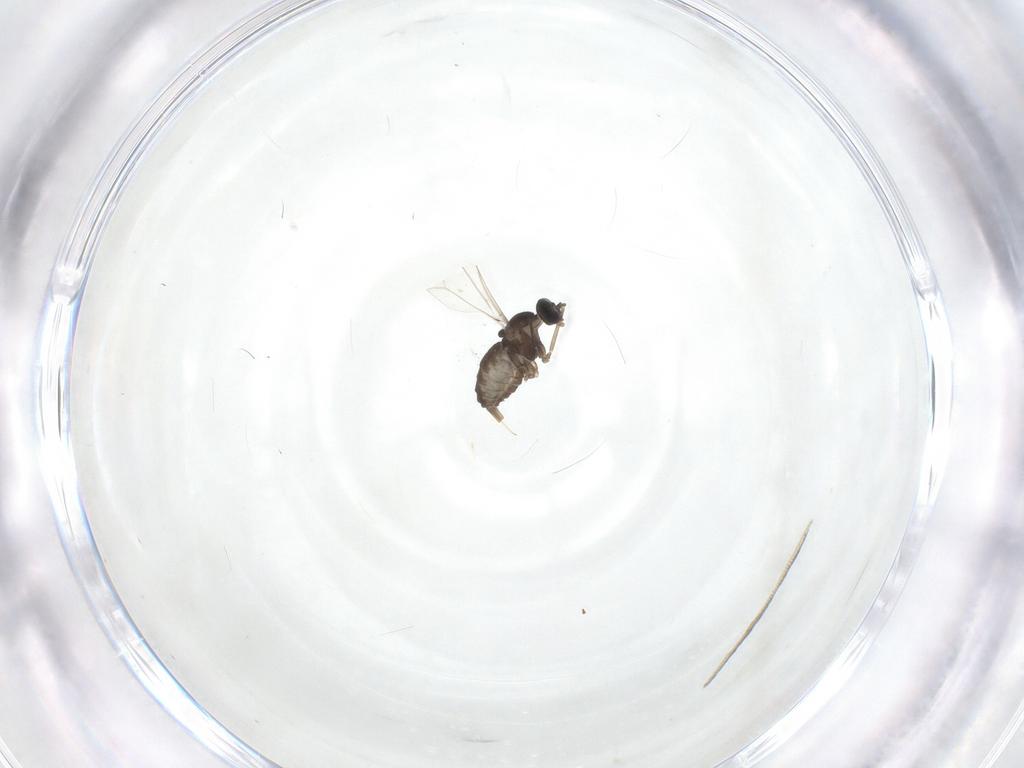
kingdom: Animalia
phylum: Arthropoda
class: Insecta
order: Diptera
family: Cecidomyiidae
